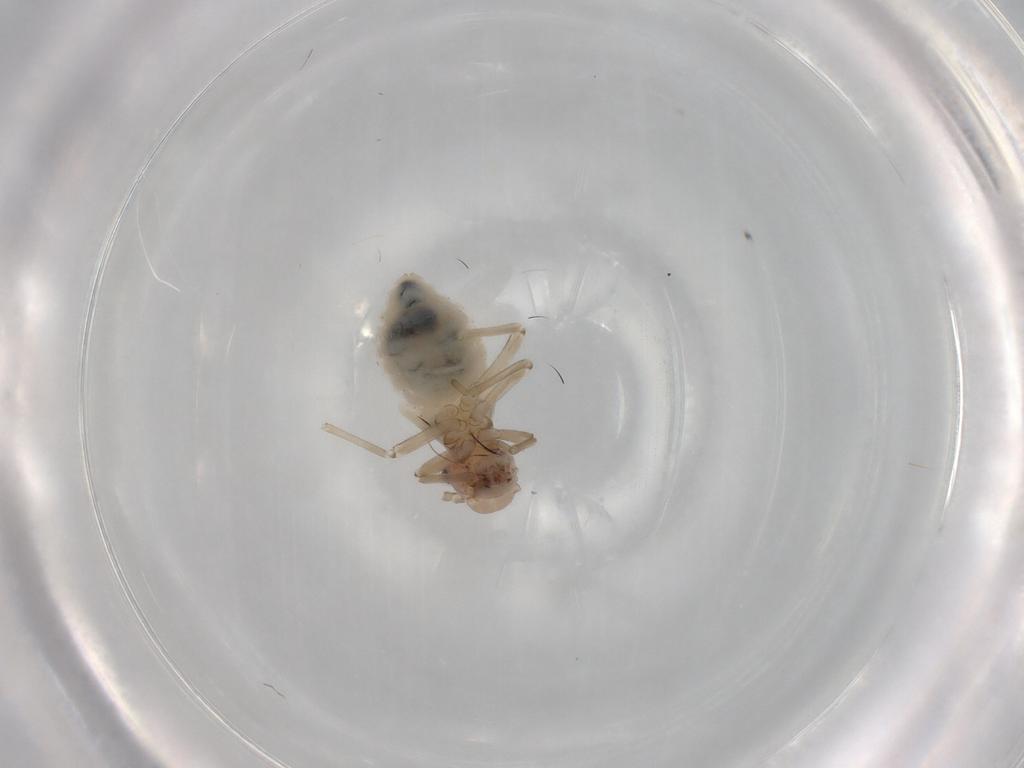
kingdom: Animalia
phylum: Arthropoda
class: Insecta
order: Psocodea
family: Stenopsocidae
